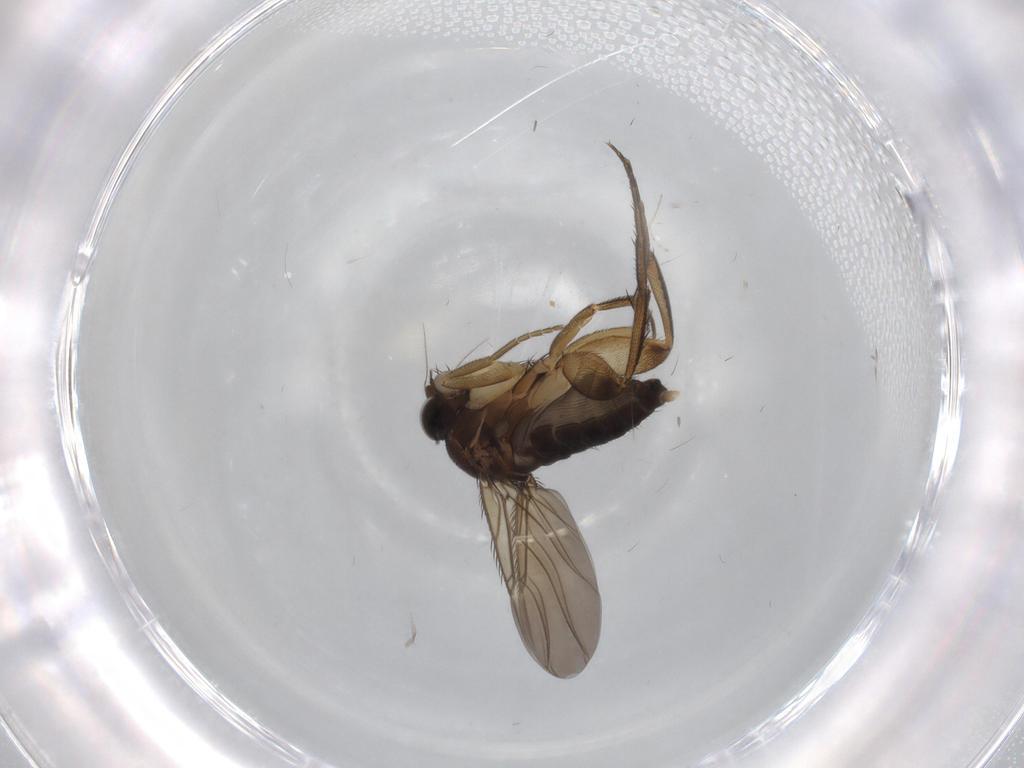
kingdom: Animalia
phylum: Arthropoda
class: Insecta
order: Diptera
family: Phoridae
